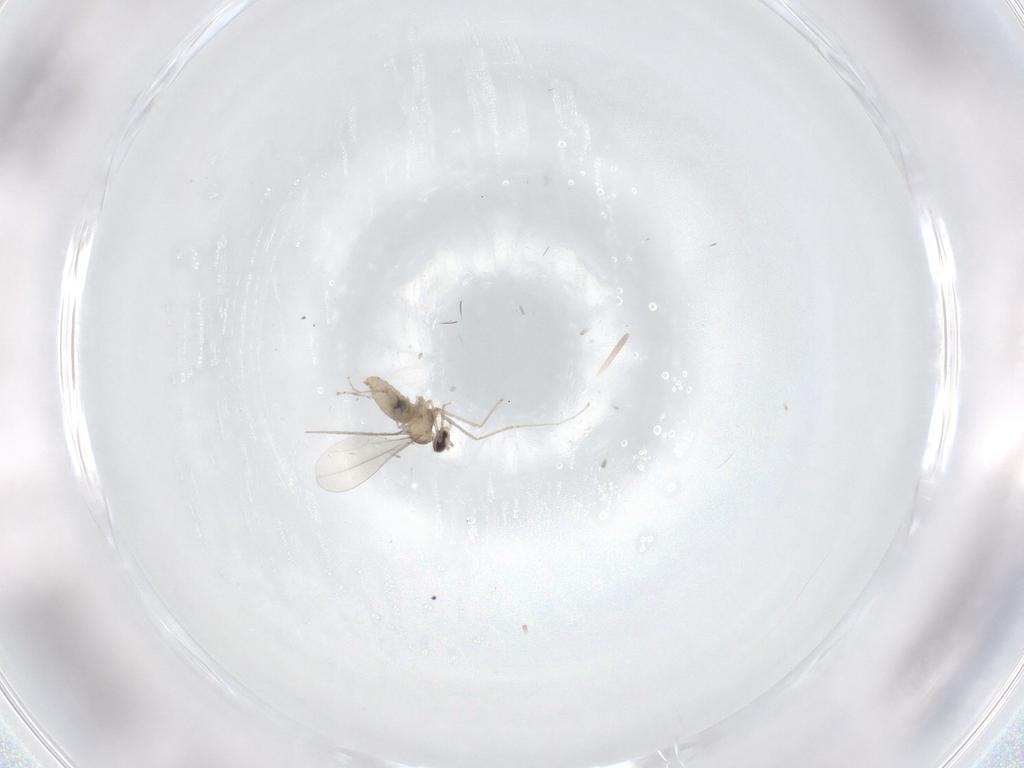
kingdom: Animalia
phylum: Arthropoda
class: Insecta
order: Diptera
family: Cecidomyiidae
